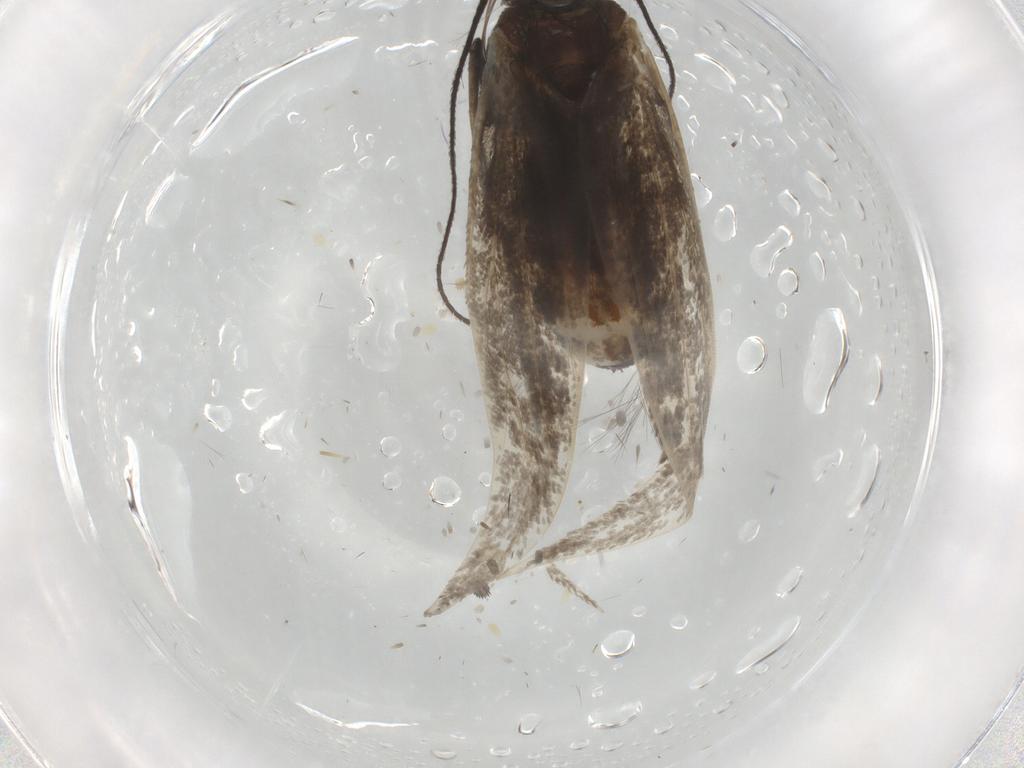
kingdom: Animalia
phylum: Arthropoda
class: Insecta
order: Lepidoptera
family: Coleophoridae
